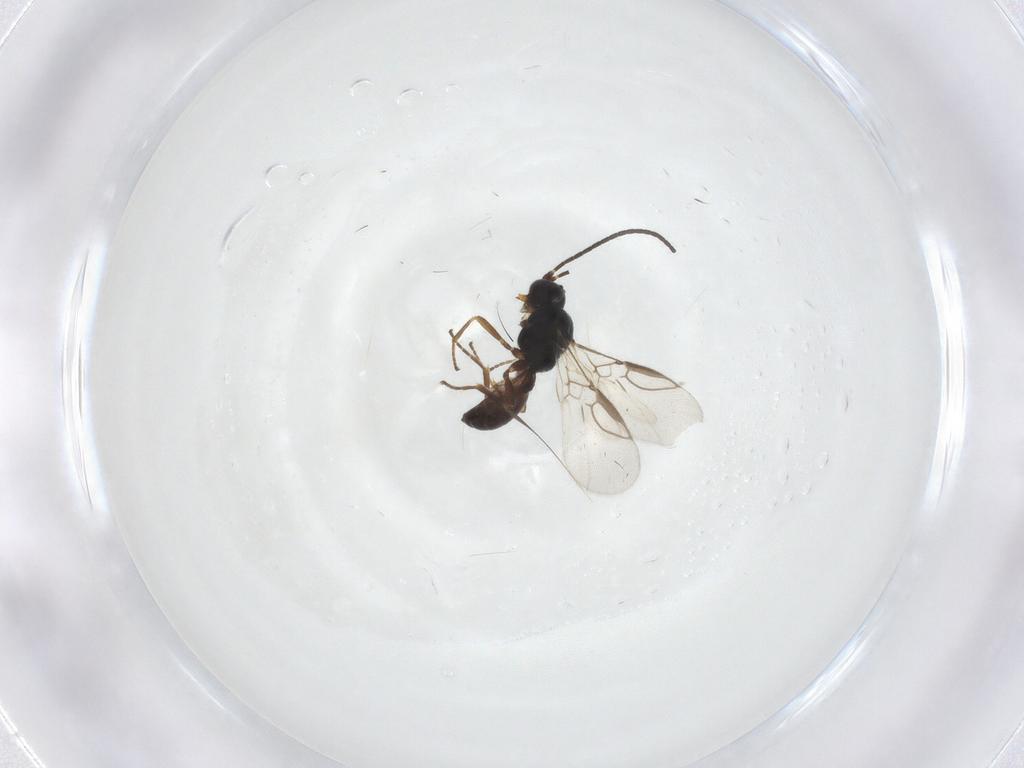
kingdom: Animalia
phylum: Arthropoda
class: Insecta
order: Hymenoptera
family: Braconidae
